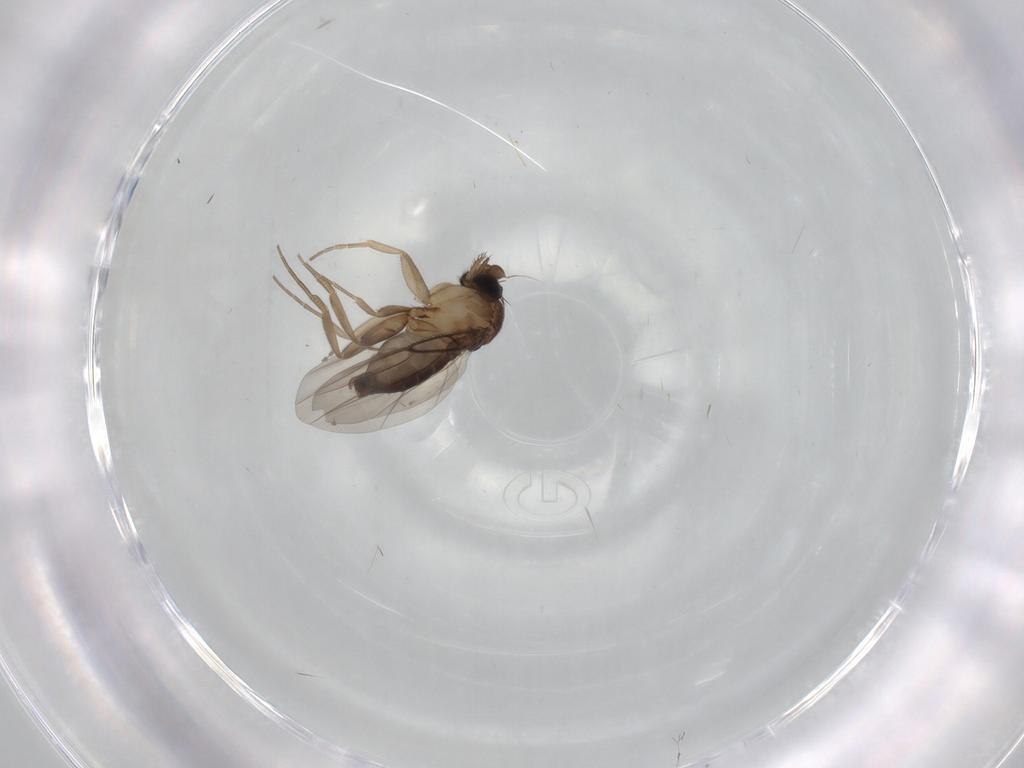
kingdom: Animalia
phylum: Arthropoda
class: Insecta
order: Diptera
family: Phoridae
